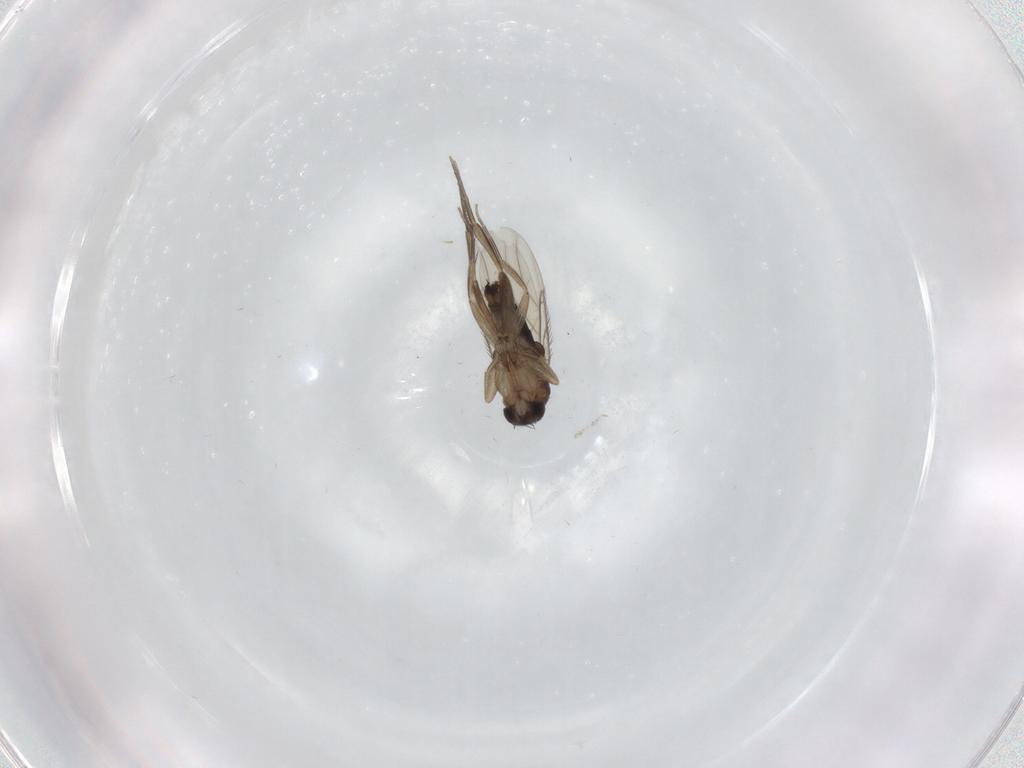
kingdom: Animalia
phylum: Arthropoda
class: Insecta
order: Diptera
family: Phoridae
